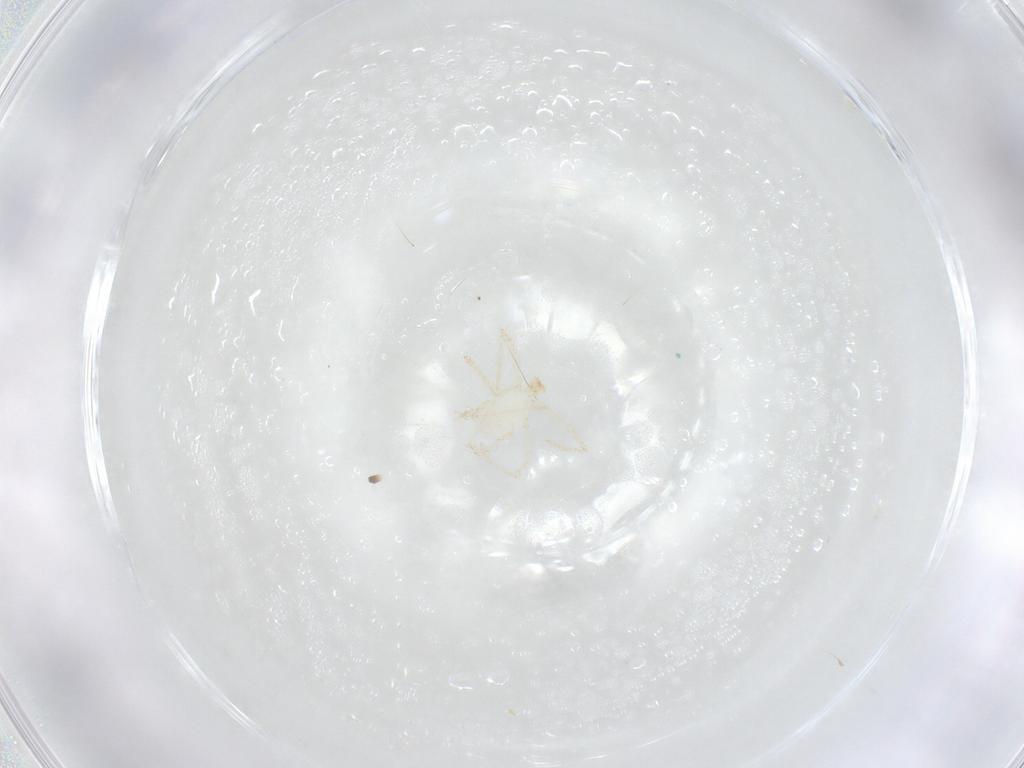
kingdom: Animalia
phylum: Arthropoda
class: Arachnida
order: Trombidiformes
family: Erythraeidae
